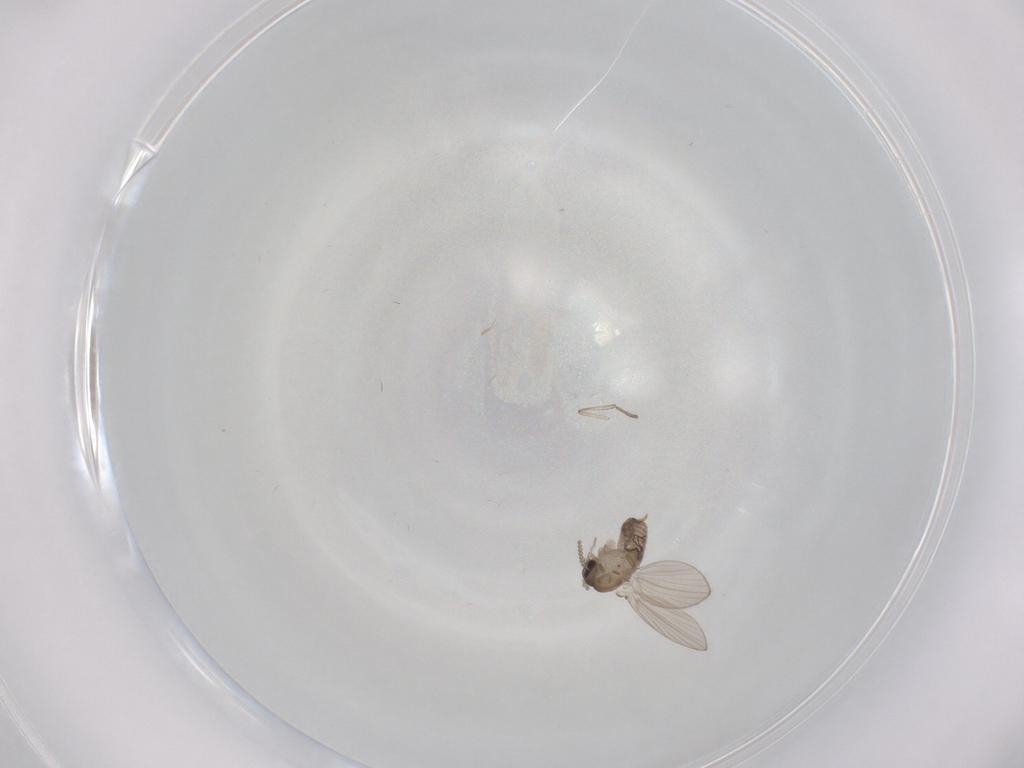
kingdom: Animalia
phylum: Arthropoda
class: Insecta
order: Diptera
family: Psychodidae
